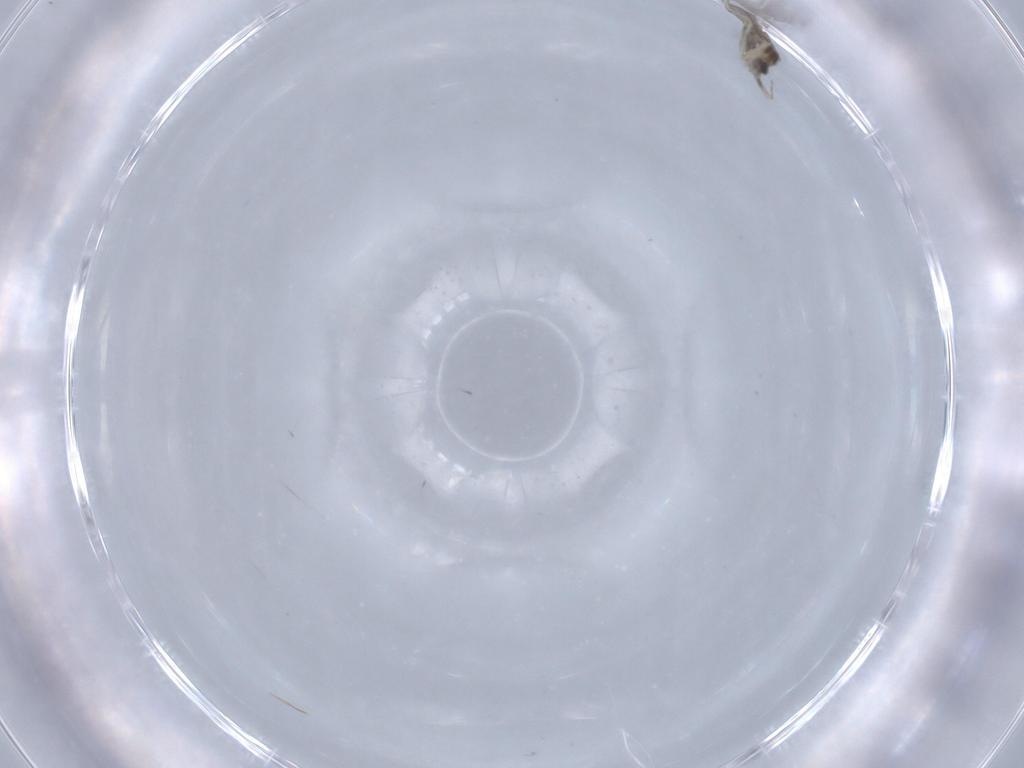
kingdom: Animalia
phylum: Arthropoda
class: Insecta
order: Diptera
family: Cecidomyiidae
